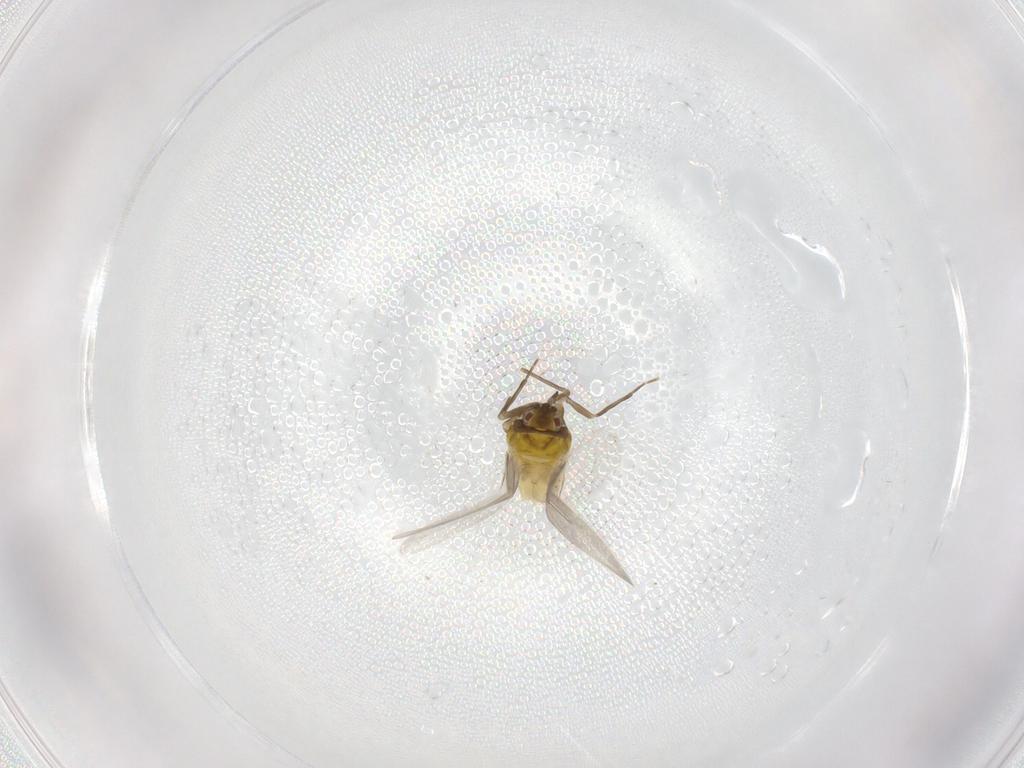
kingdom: Animalia
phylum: Arthropoda
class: Insecta
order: Hemiptera
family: Aleyrodidae
